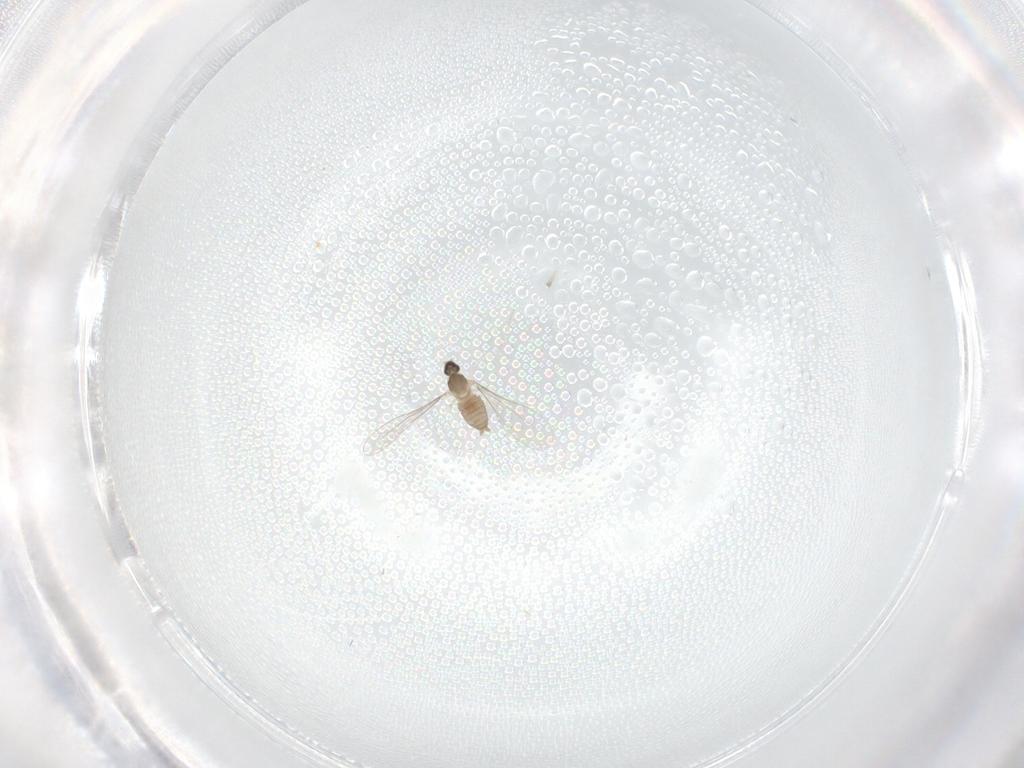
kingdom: Animalia
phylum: Arthropoda
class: Insecta
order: Diptera
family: Cecidomyiidae
